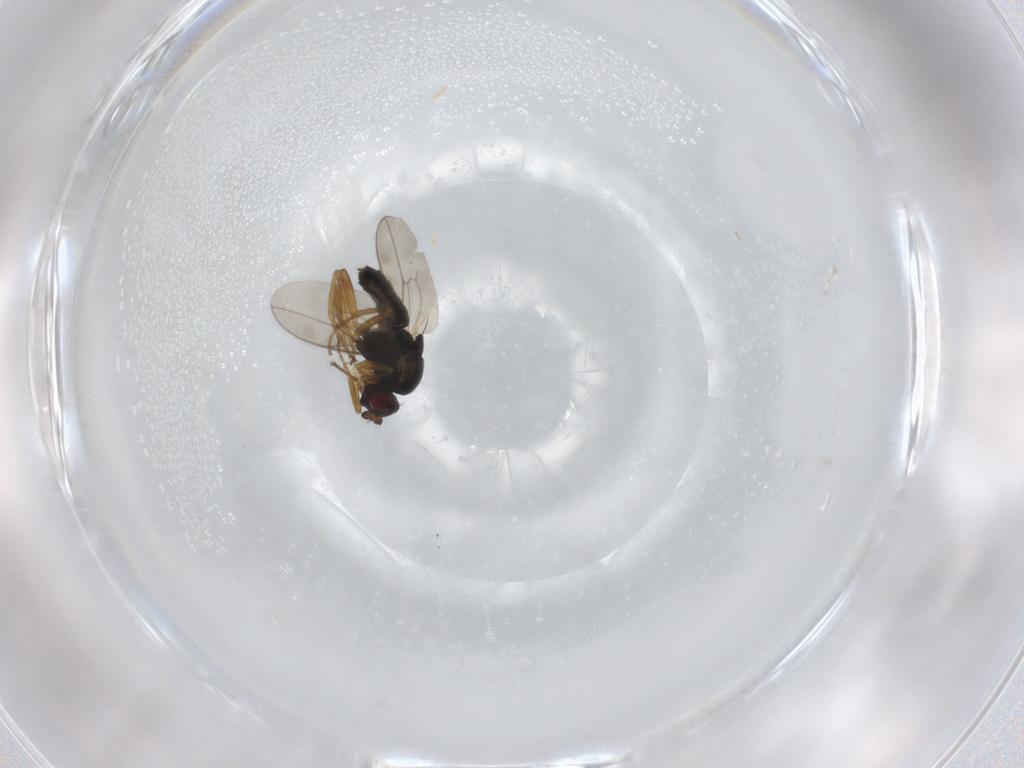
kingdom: Animalia
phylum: Arthropoda
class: Insecta
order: Diptera
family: Sphaeroceridae
